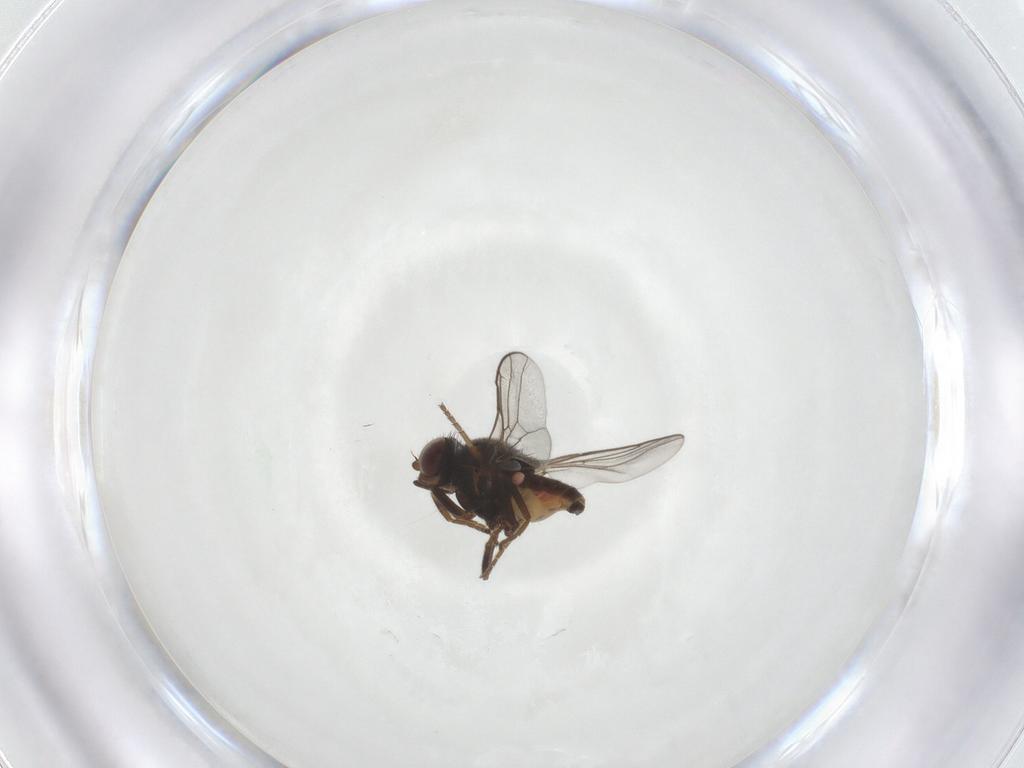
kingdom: Animalia
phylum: Arthropoda
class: Insecta
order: Diptera
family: Chloropidae
